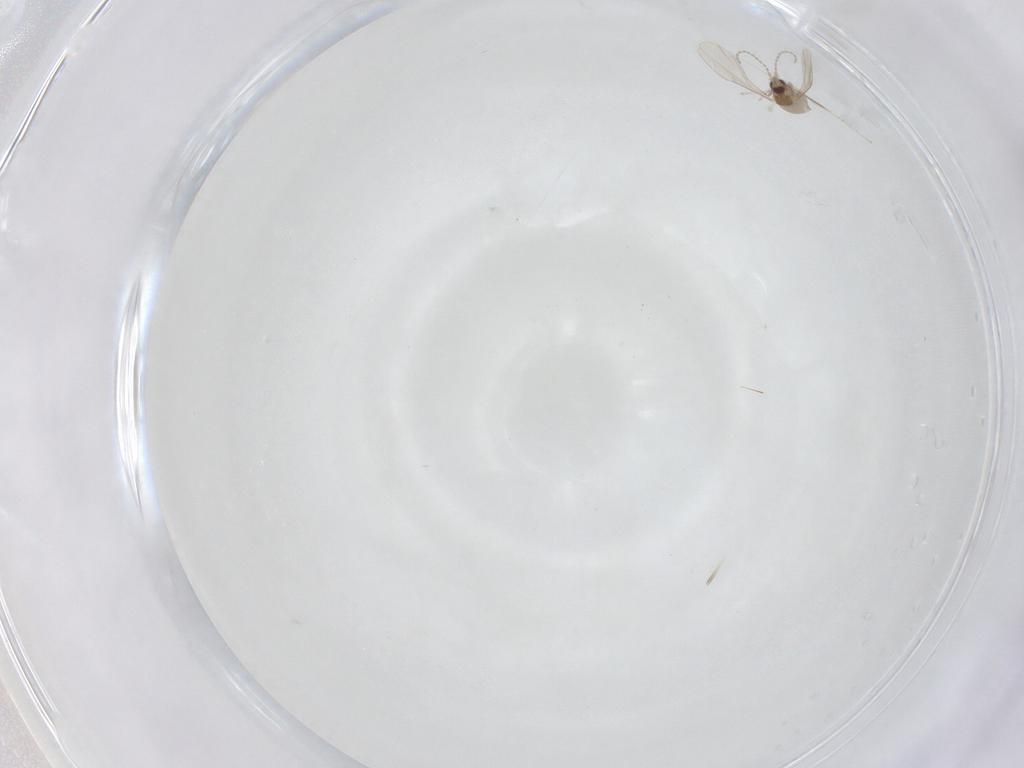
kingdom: Animalia
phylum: Arthropoda
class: Insecta
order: Diptera
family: Cecidomyiidae
